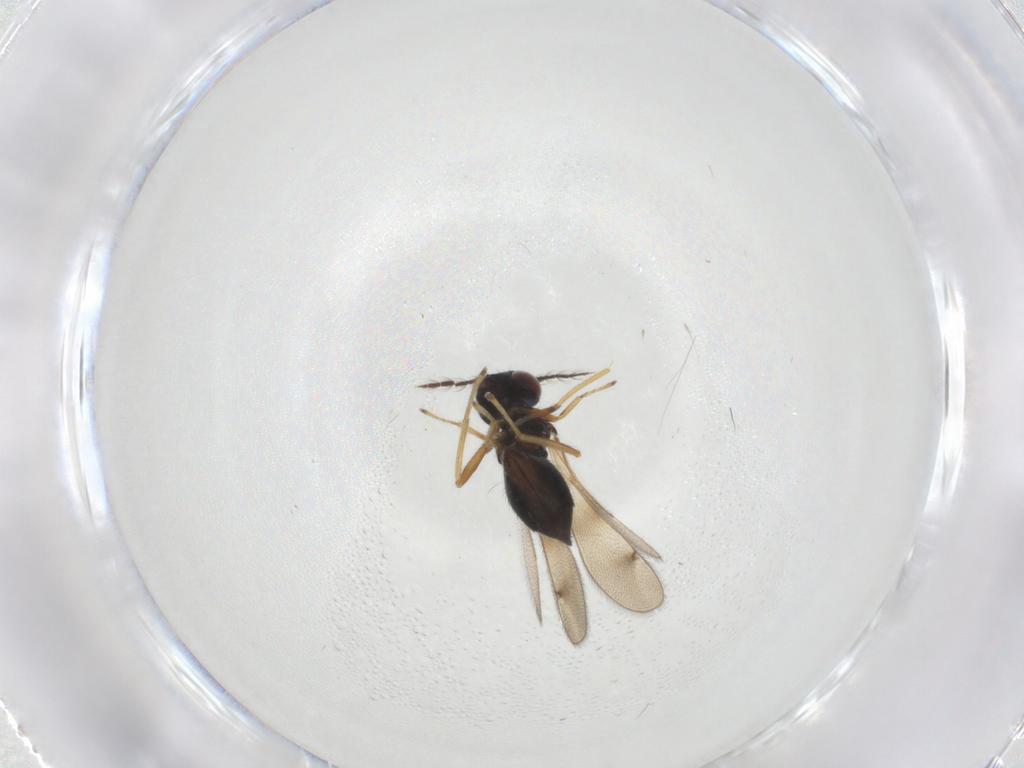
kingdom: Animalia
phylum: Arthropoda
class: Insecta
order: Hymenoptera
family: Eulophidae
